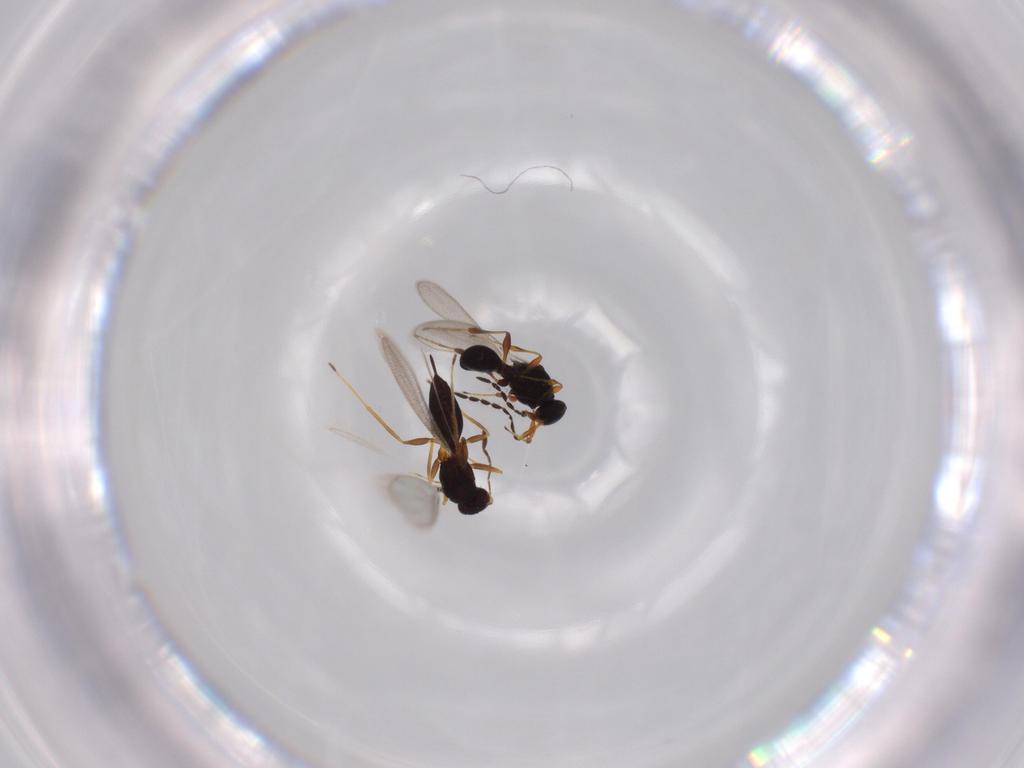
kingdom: Animalia
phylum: Arthropoda
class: Insecta
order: Hymenoptera
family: Platygastridae
